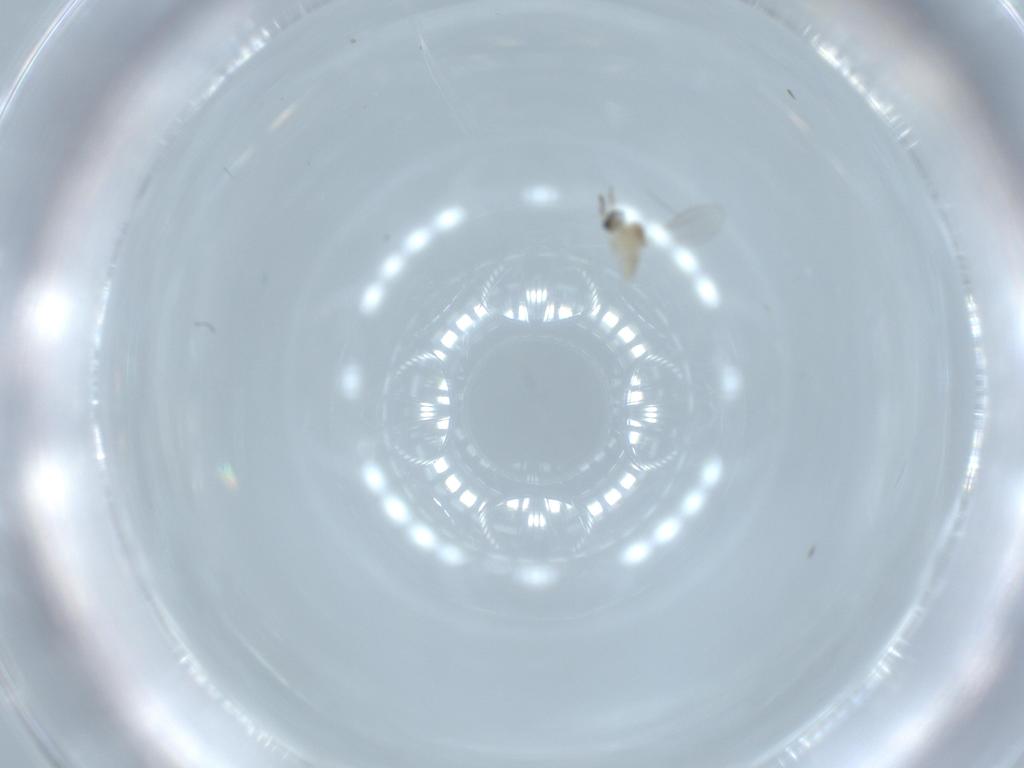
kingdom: Animalia
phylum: Arthropoda
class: Insecta
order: Diptera
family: Cecidomyiidae
